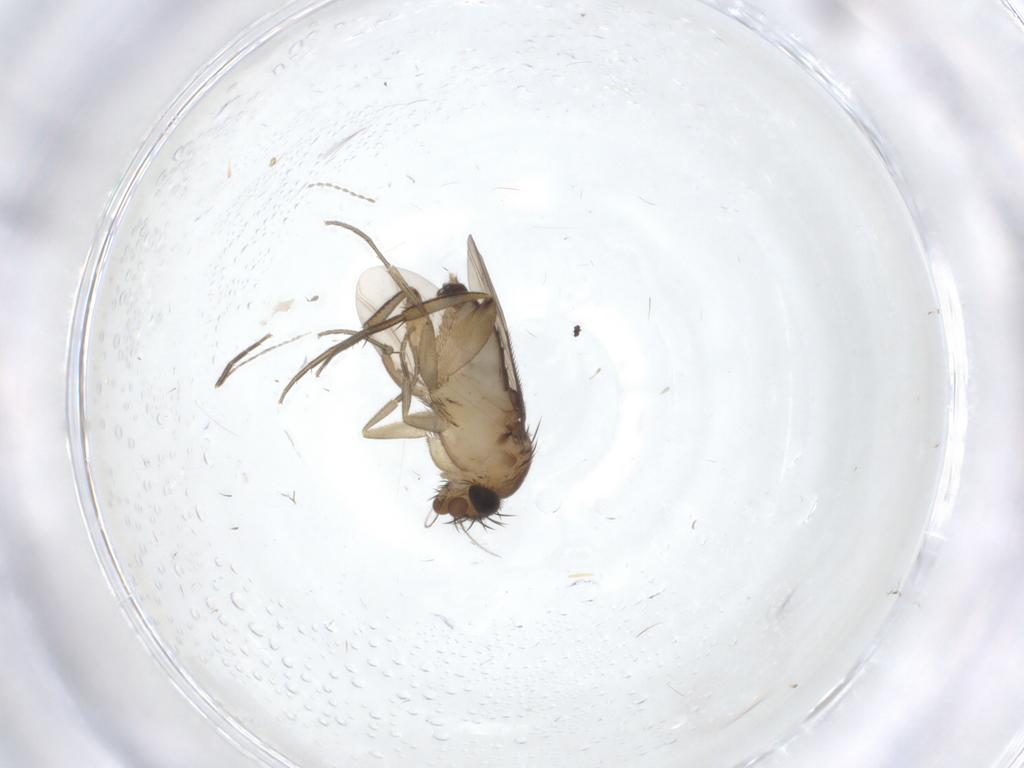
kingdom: Animalia
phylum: Arthropoda
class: Insecta
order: Diptera
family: Phoridae
